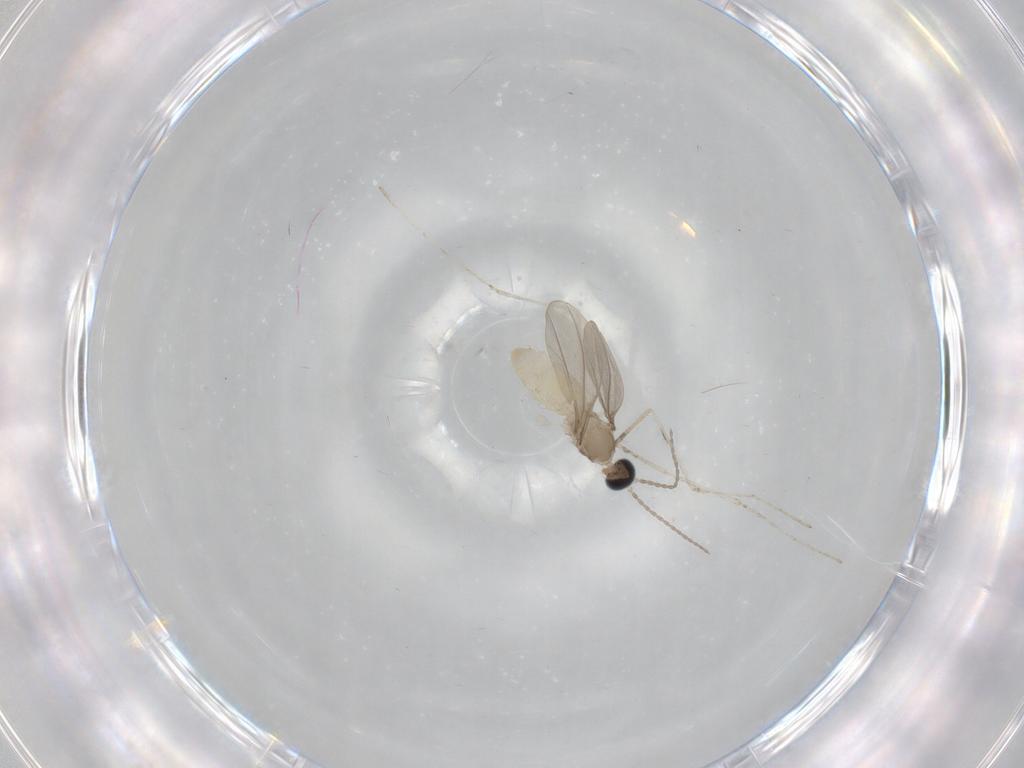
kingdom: Animalia
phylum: Arthropoda
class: Insecta
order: Diptera
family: Cecidomyiidae
